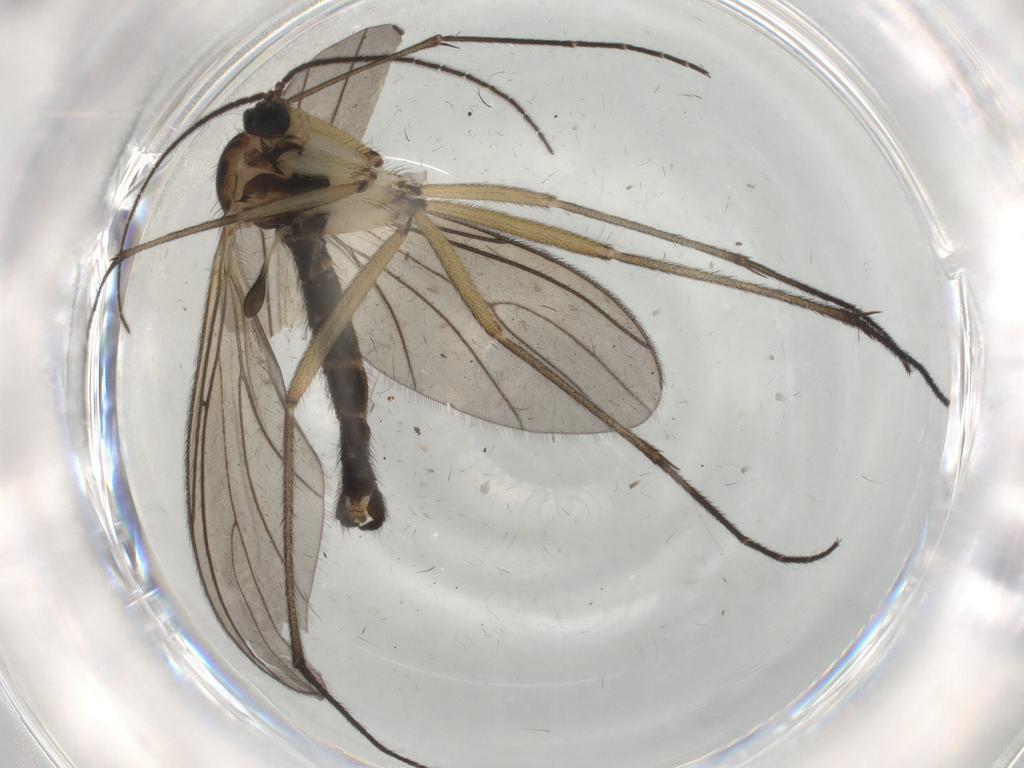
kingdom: Animalia
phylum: Arthropoda
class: Insecta
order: Diptera
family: Sciaridae
